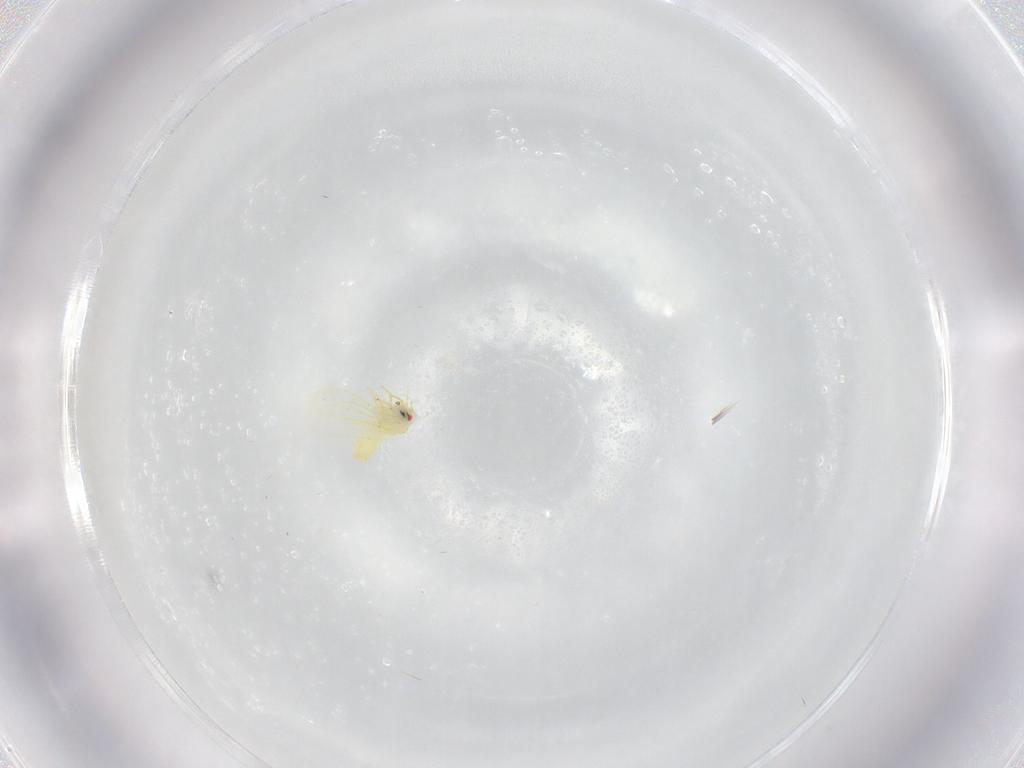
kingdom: Animalia
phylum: Arthropoda
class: Insecta
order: Hemiptera
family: Aleyrodidae
